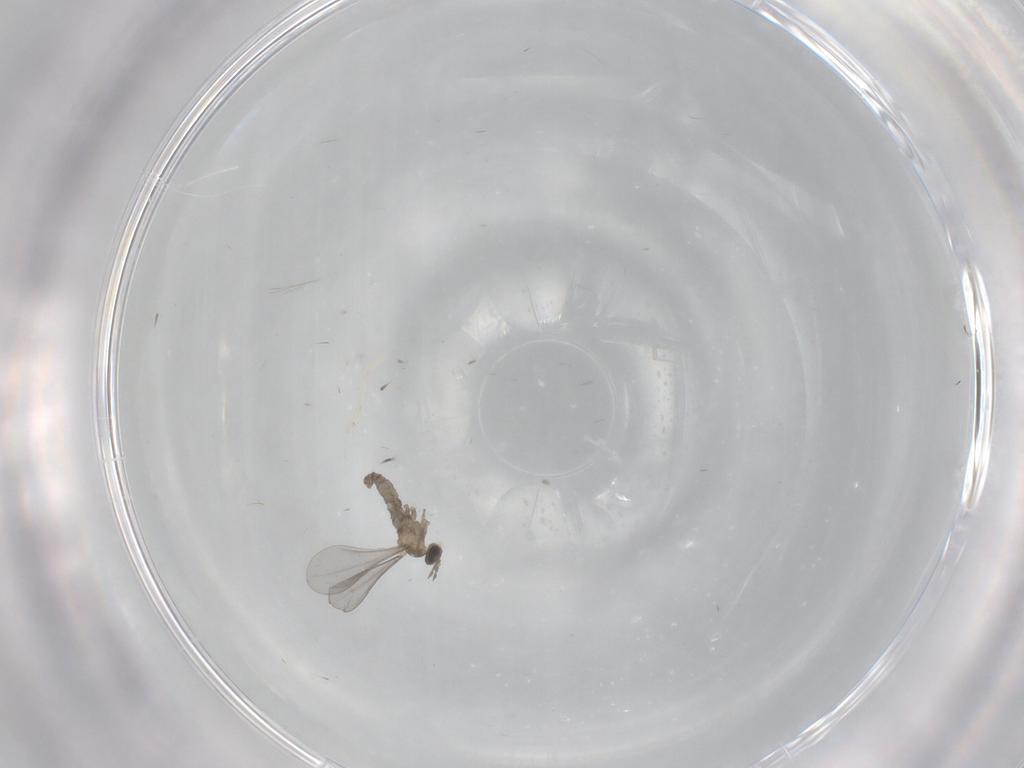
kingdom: Animalia
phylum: Arthropoda
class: Insecta
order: Diptera
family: Cecidomyiidae
